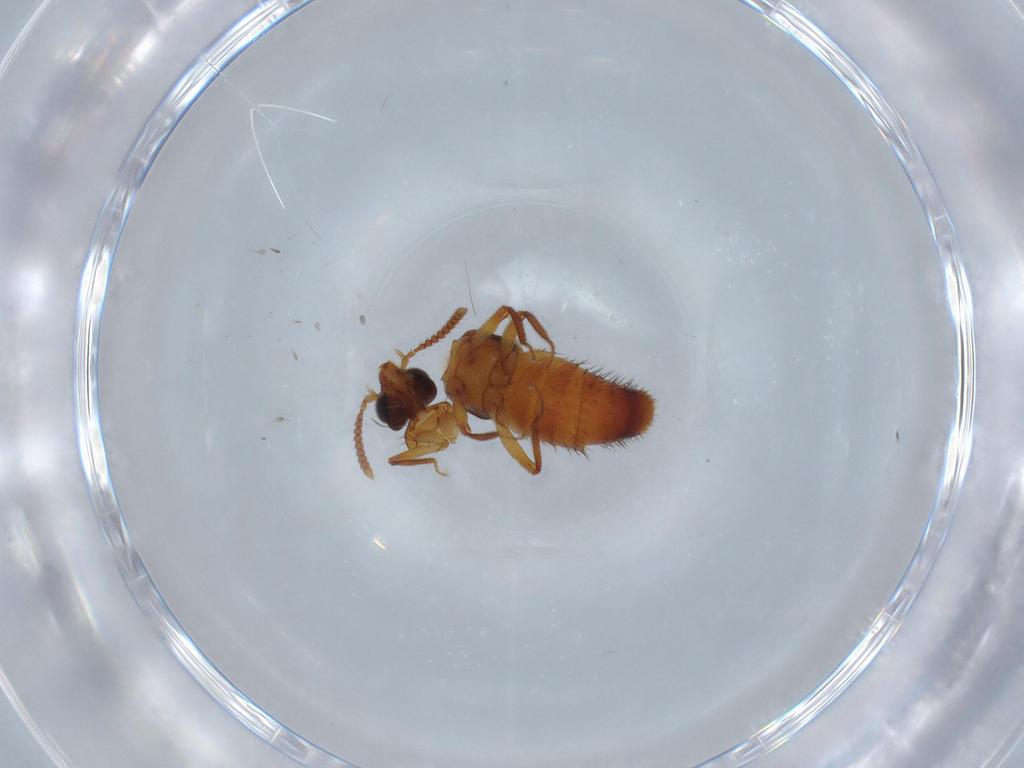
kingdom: Animalia
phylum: Arthropoda
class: Insecta
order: Coleoptera
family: Staphylinidae
